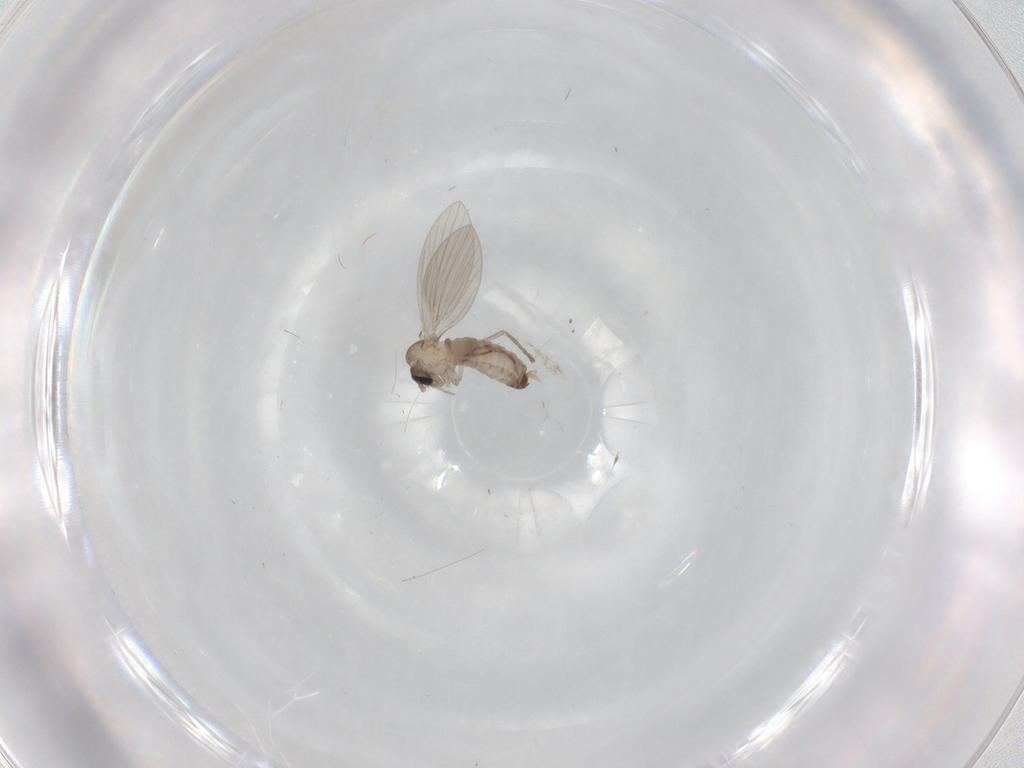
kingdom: Animalia
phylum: Arthropoda
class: Insecta
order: Diptera
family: Psychodidae
